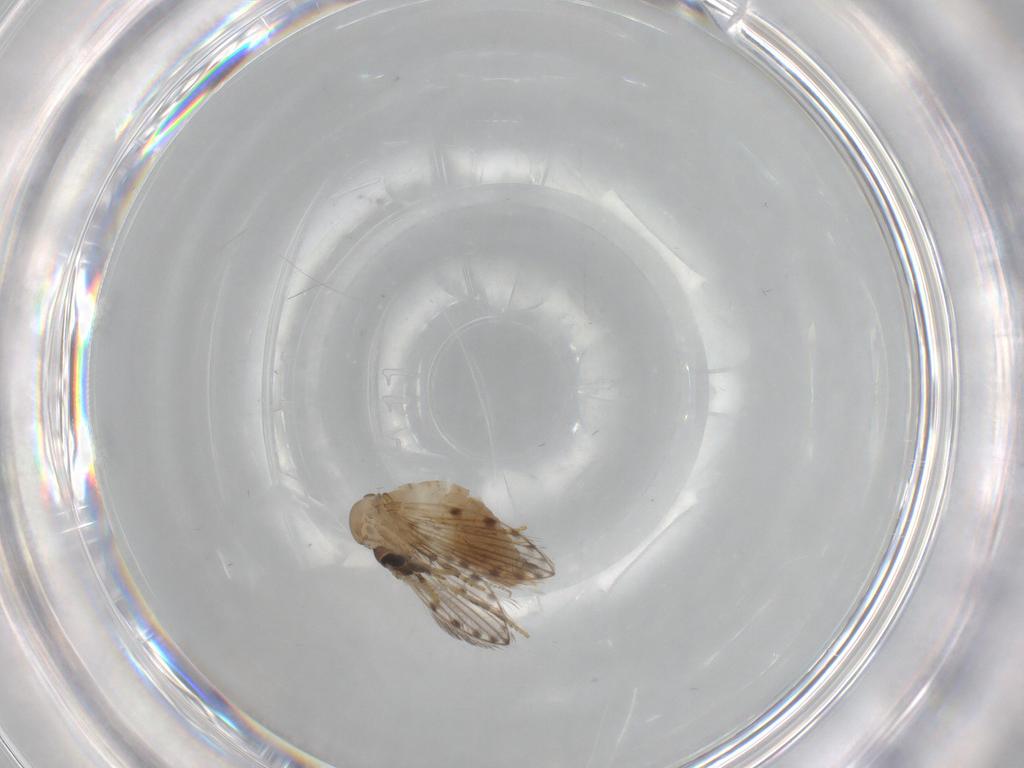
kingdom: Animalia
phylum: Arthropoda
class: Insecta
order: Diptera
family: Psychodidae
